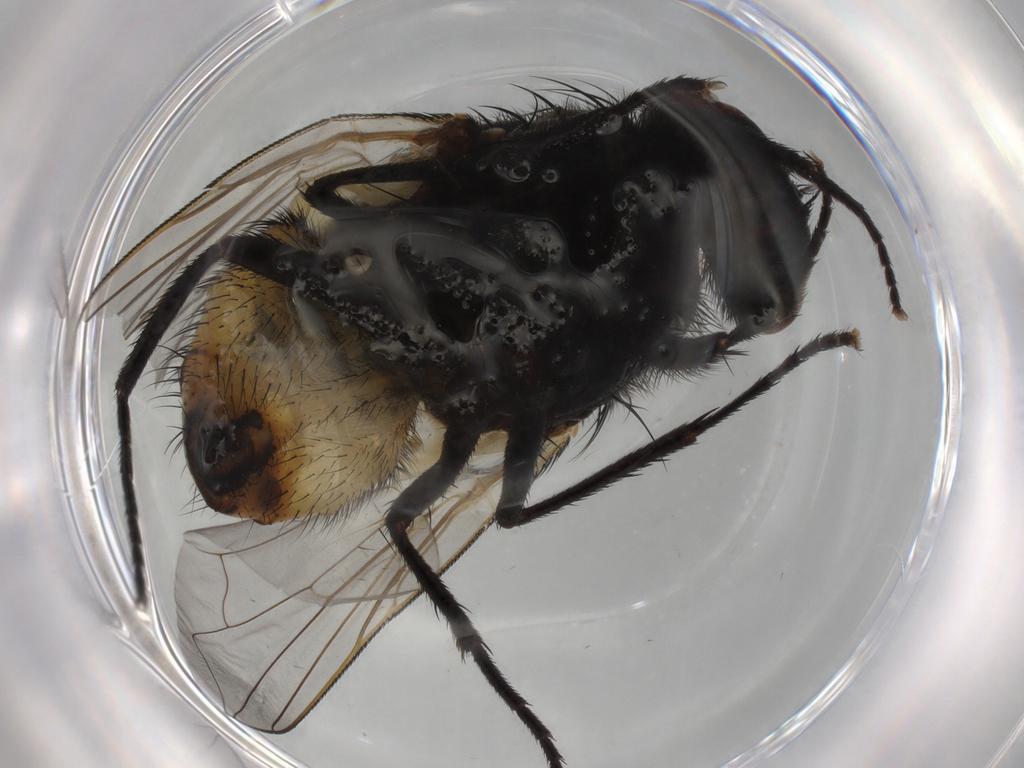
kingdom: Animalia
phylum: Arthropoda
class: Insecta
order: Diptera
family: Muscidae
